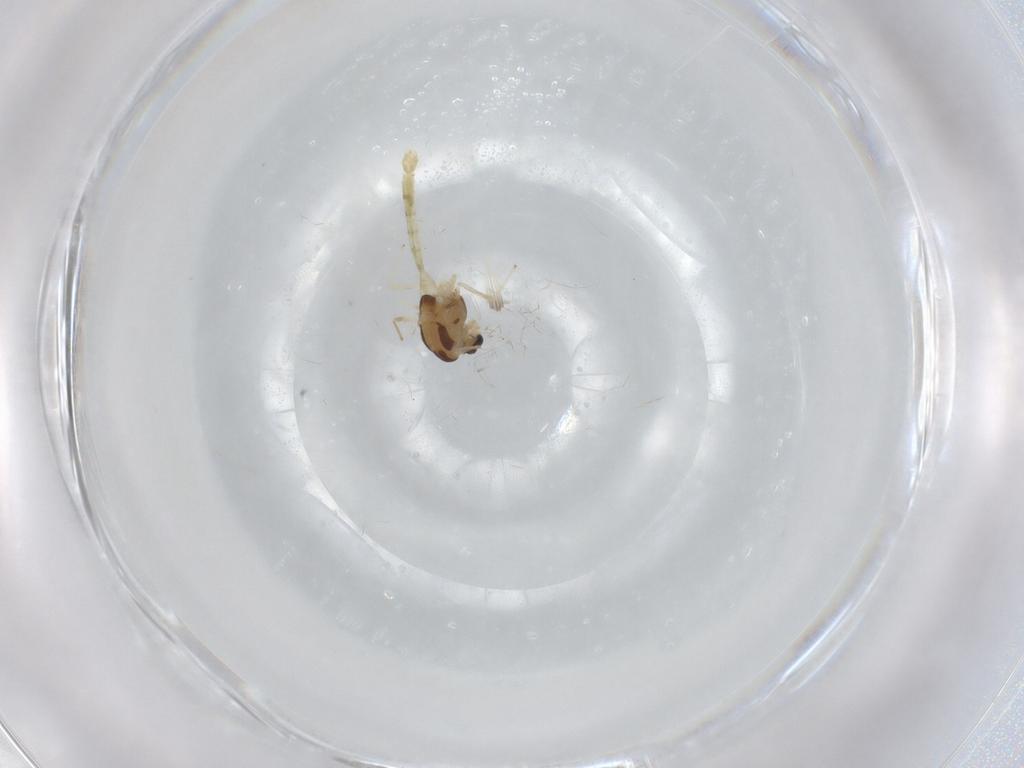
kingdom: Animalia
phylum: Arthropoda
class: Insecta
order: Diptera
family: Chironomidae
